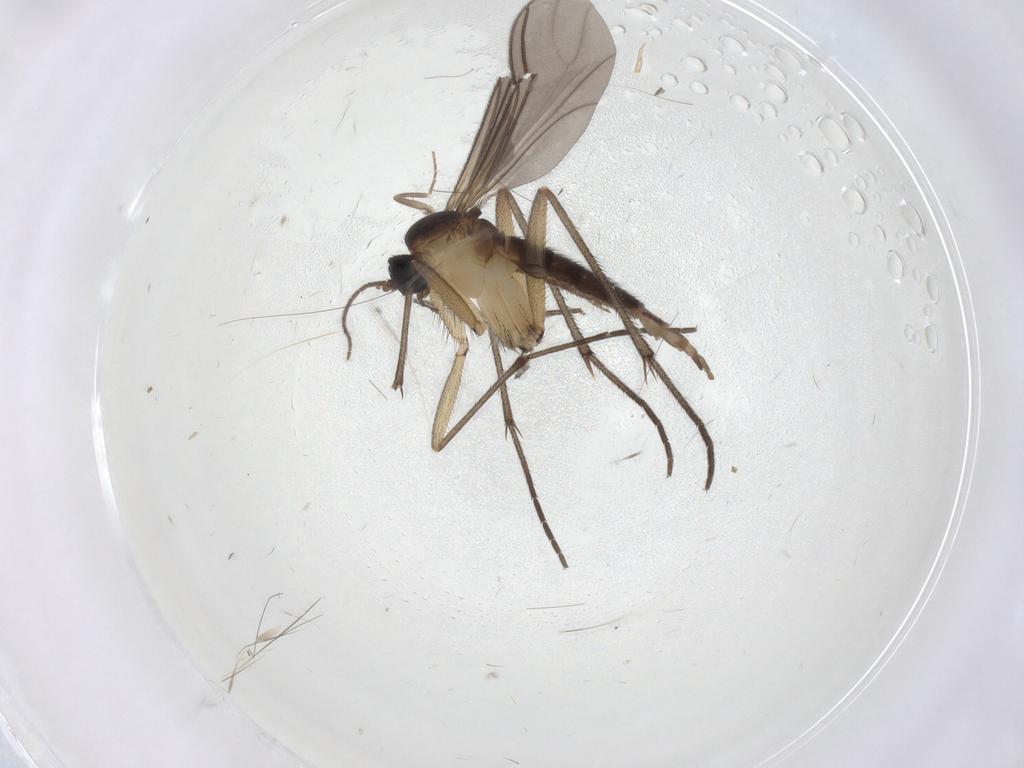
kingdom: Animalia
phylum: Arthropoda
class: Insecta
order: Diptera
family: Sciaridae
